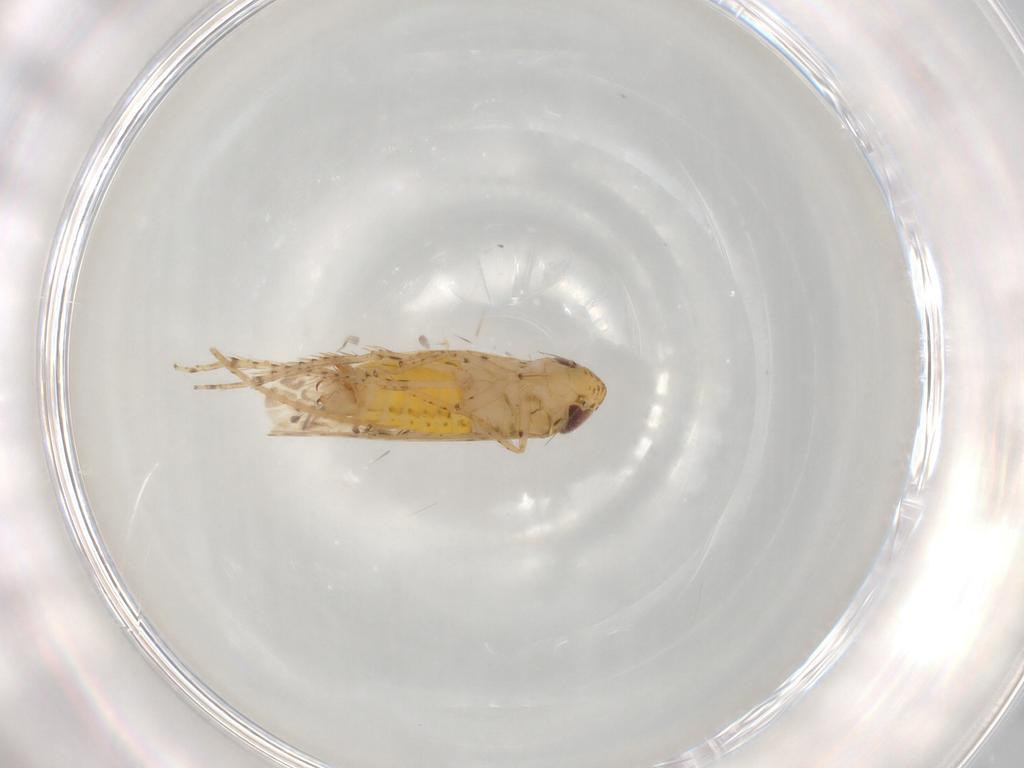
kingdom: Animalia
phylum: Arthropoda
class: Insecta
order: Hemiptera
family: Cicadellidae
